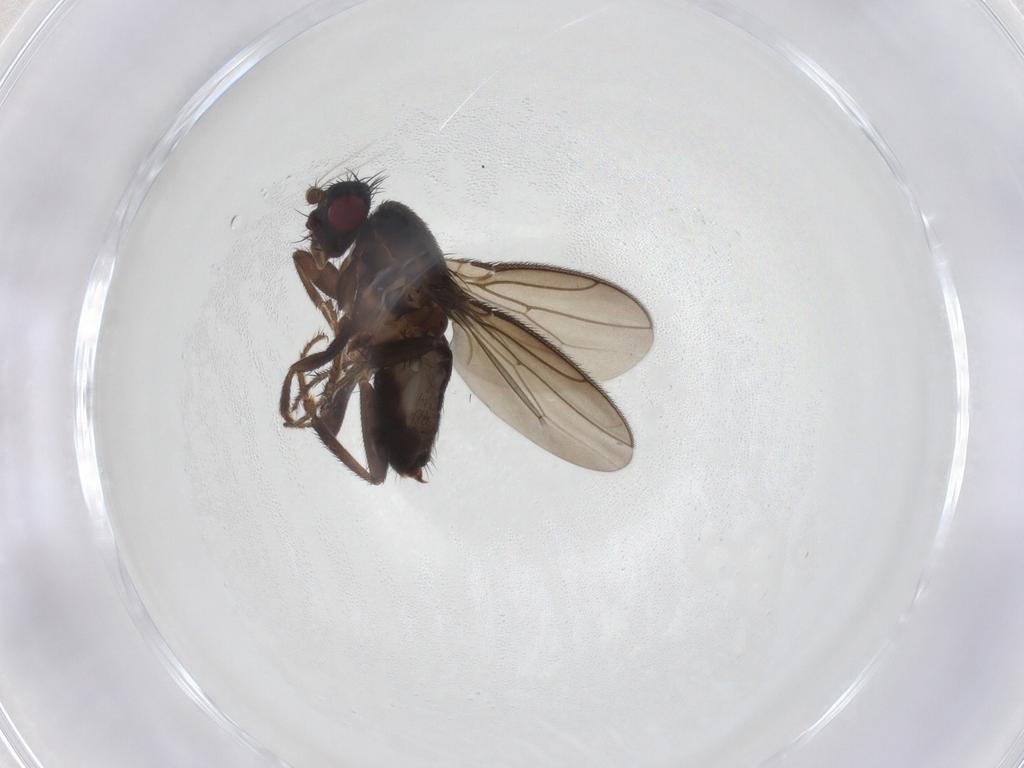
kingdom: Animalia
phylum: Arthropoda
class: Insecta
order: Diptera
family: Sphaeroceridae
